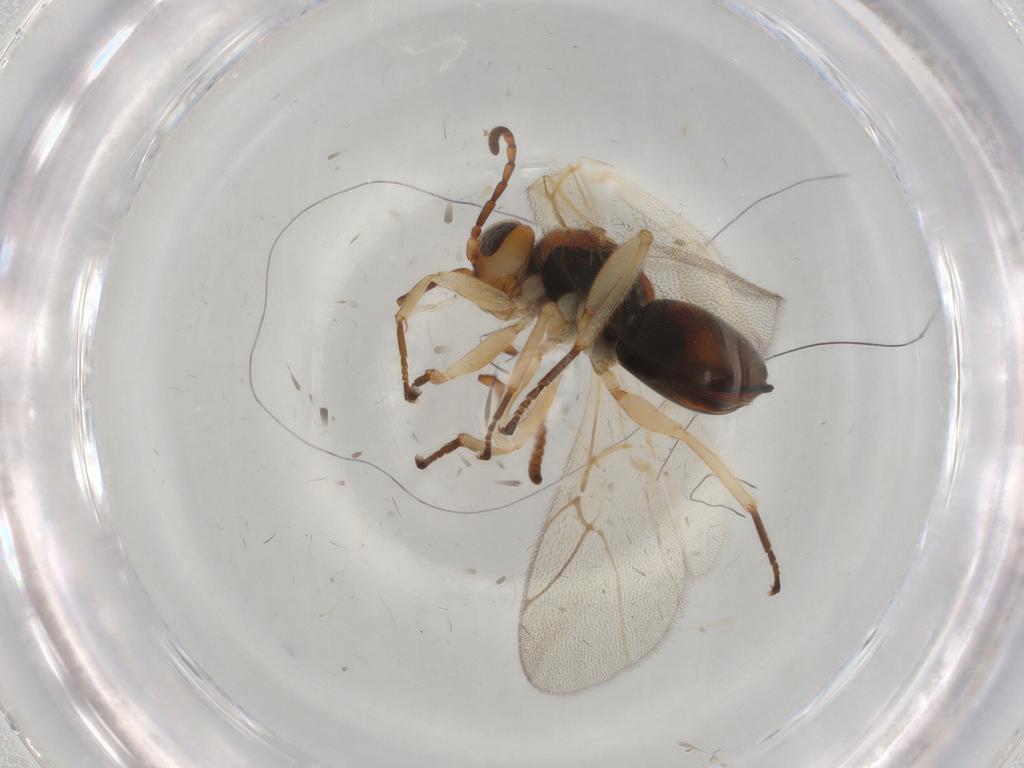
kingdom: Animalia
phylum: Arthropoda
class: Insecta
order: Hymenoptera
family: Cynipidae
